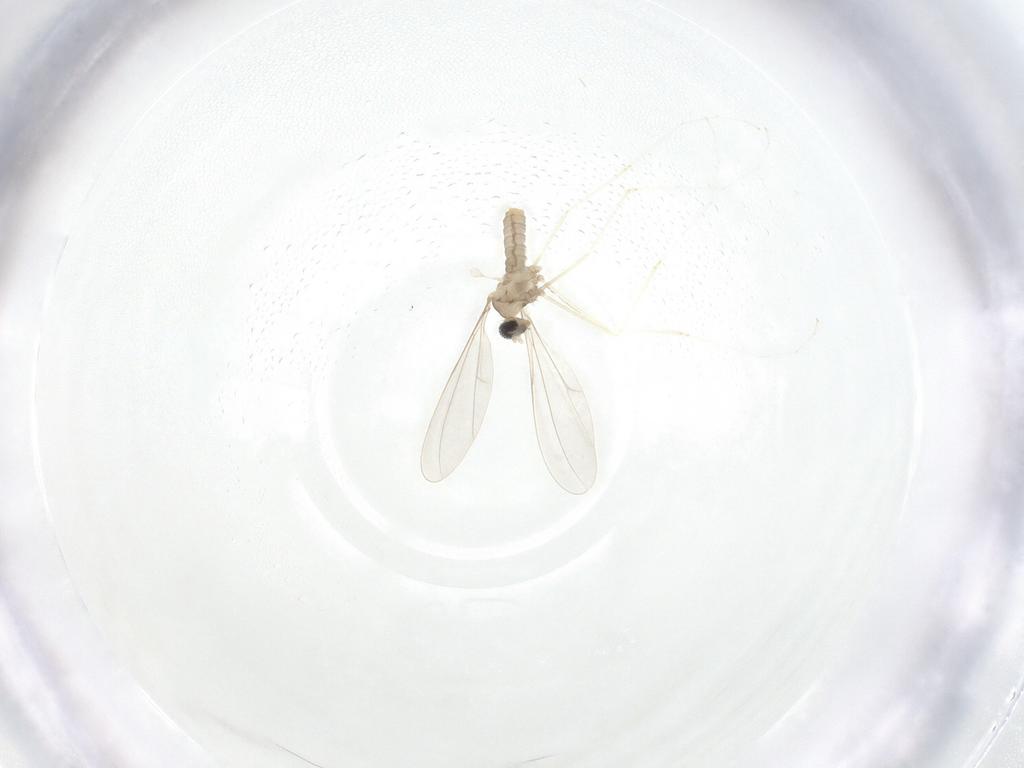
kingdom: Animalia
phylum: Arthropoda
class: Insecta
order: Diptera
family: Cecidomyiidae
